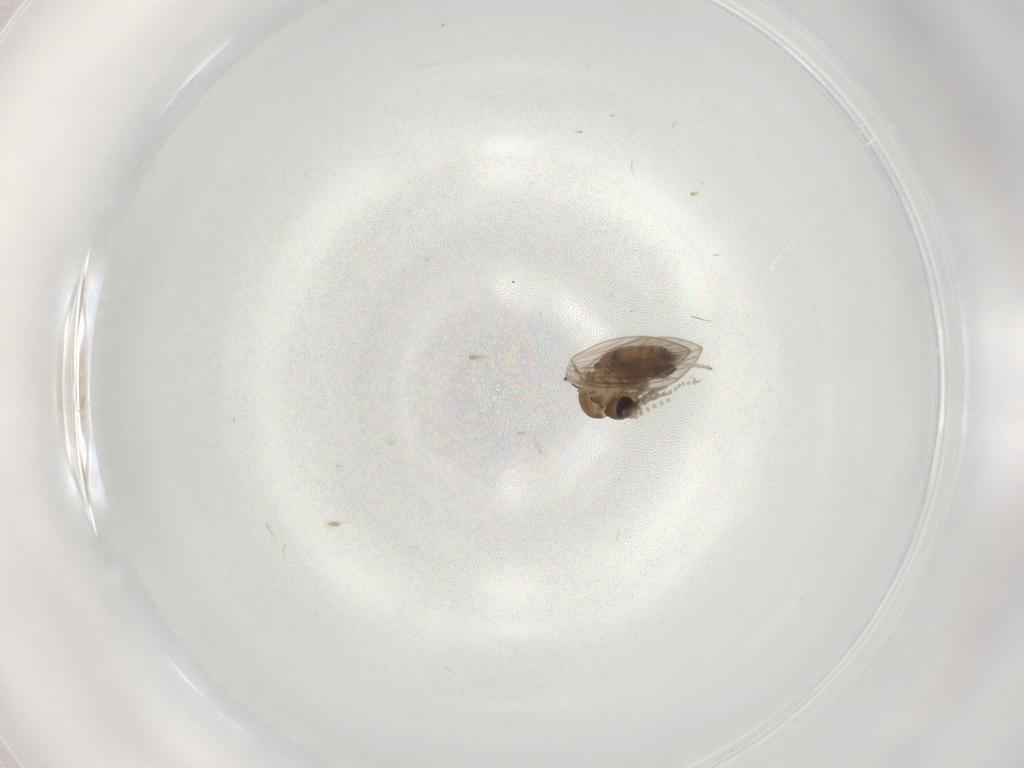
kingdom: Animalia
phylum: Arthropoda
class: Insecta
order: Diptera
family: Psychodidae
